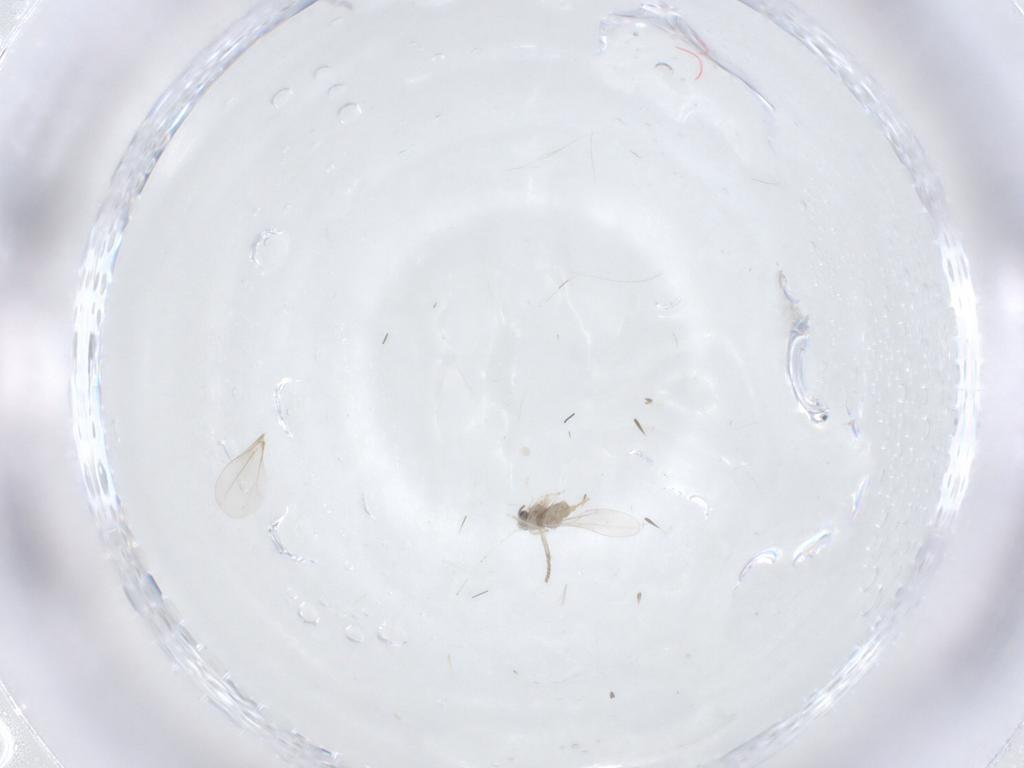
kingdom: Animalia
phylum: Arthropoda
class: Insecta
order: Diptera
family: Psychodidae
